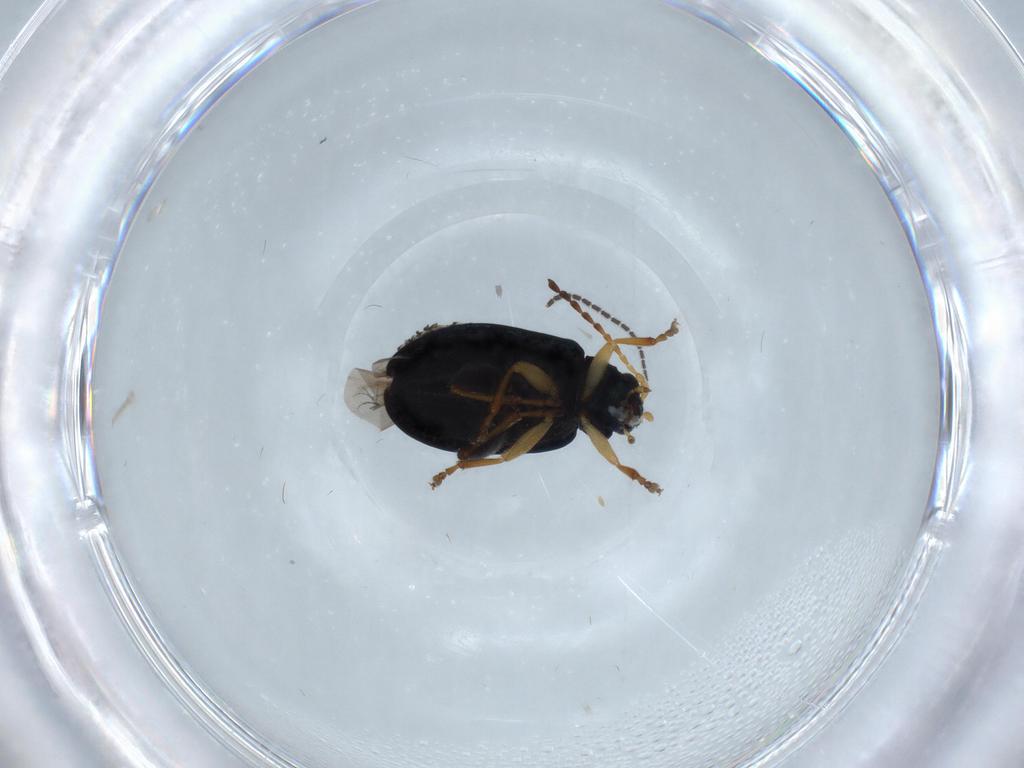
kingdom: Animalia
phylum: Arthropoda
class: Insecta
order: Coleoptera
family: Chrysomelidae
